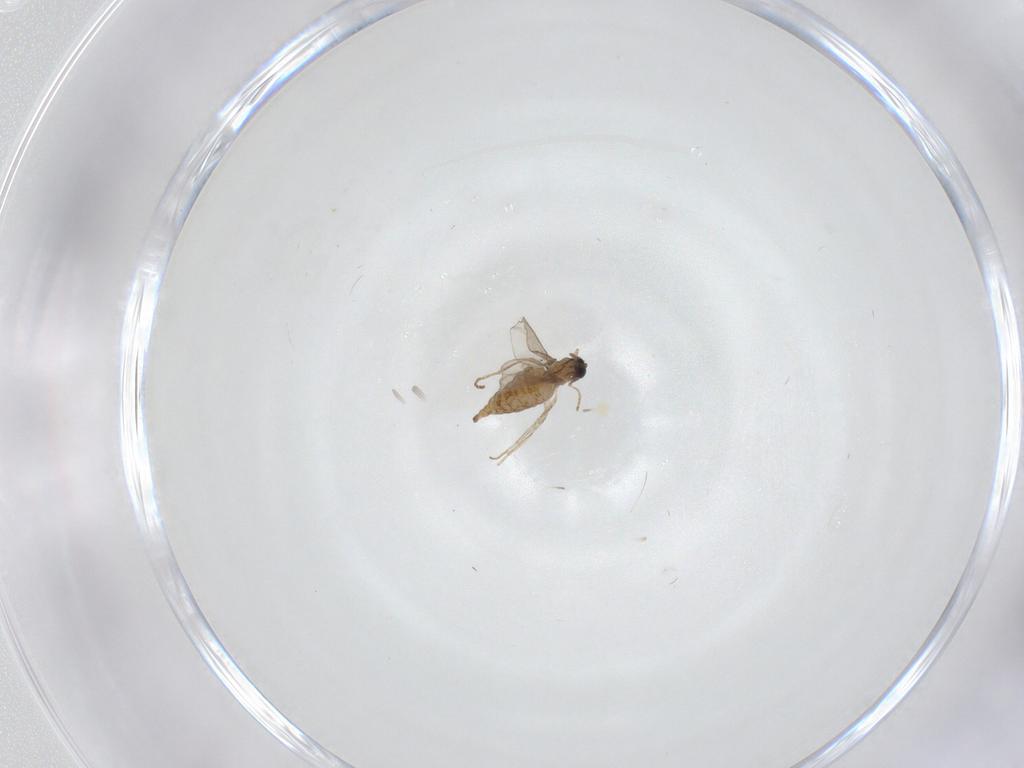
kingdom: Animalia
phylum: Arthropoda
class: Insecta
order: Diptera
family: Cecidomyiidae
